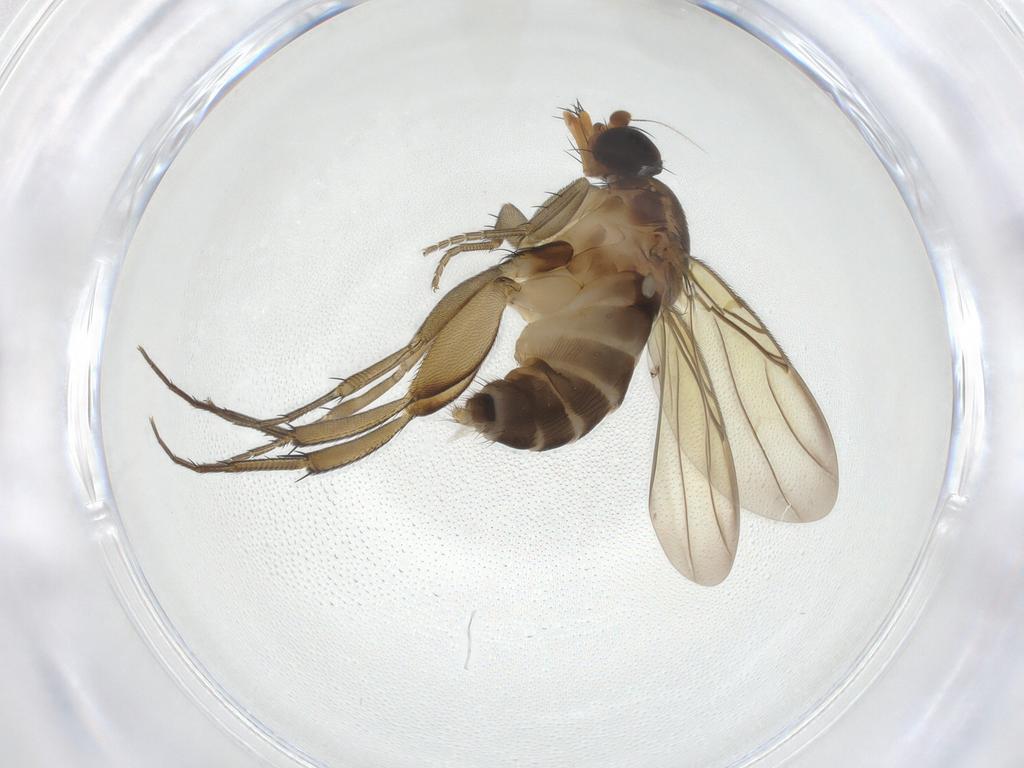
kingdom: Animalia
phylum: Arthropoda
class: Insecta
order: Diptera
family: Phoridae
